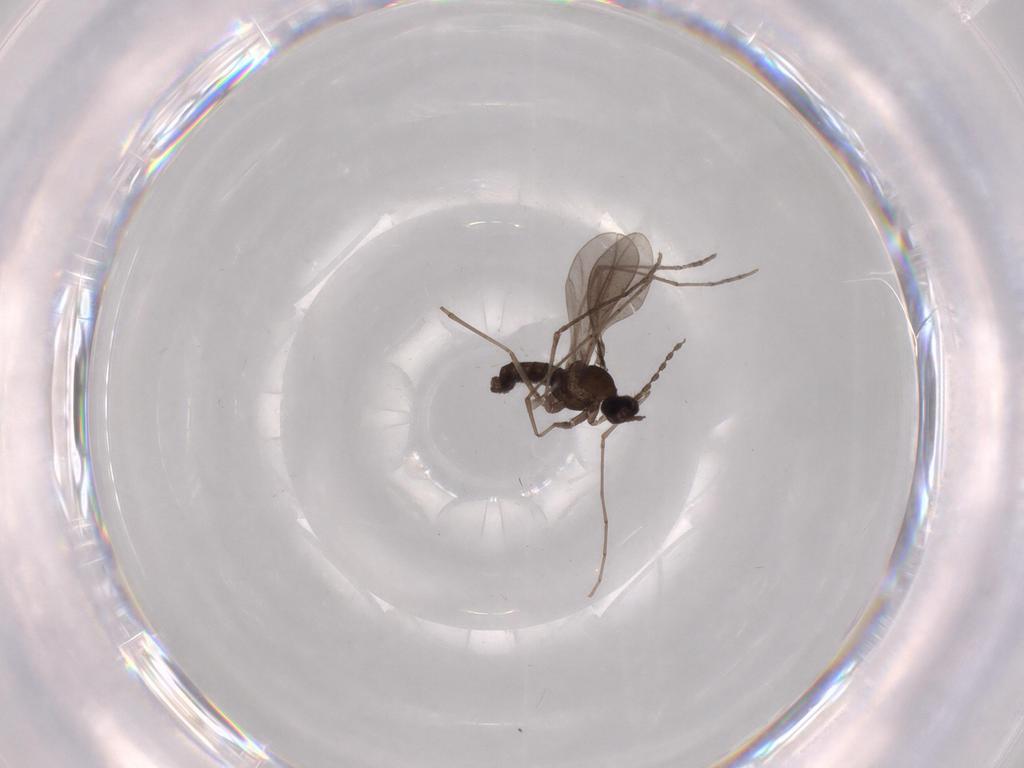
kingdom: Animalia
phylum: Arthropoda
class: Insecta
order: Diptera
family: Cecidomyiidae
